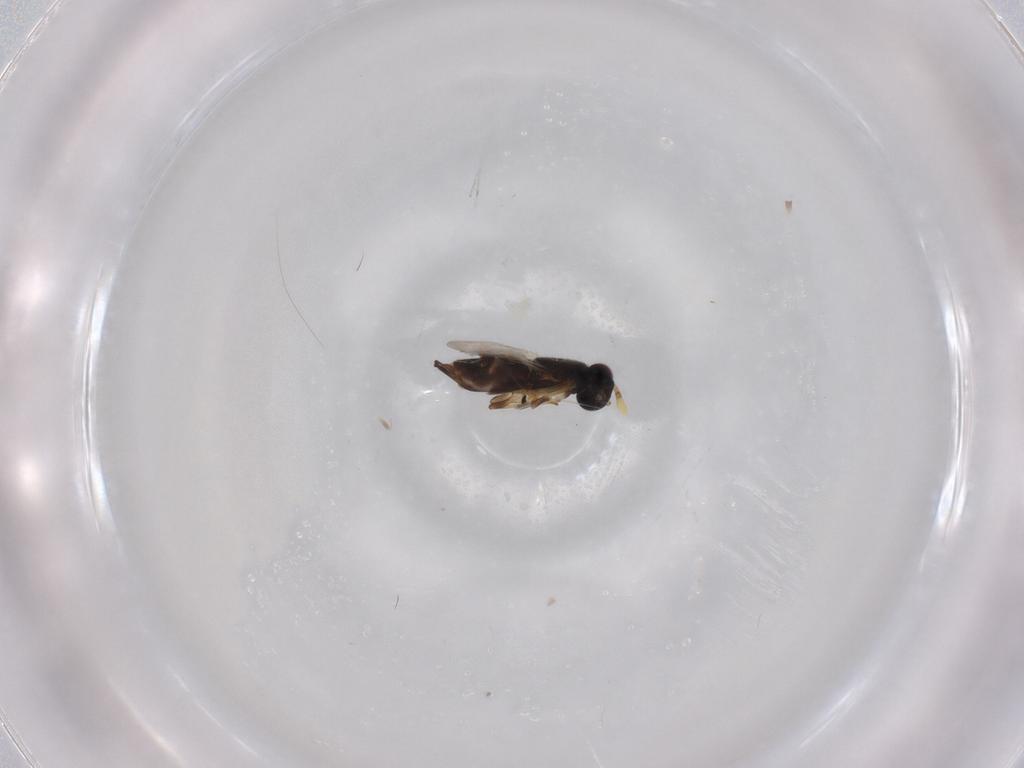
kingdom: Animalia
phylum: Arthropoda
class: Insecta
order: Hymenoptera
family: Encyrtidae
